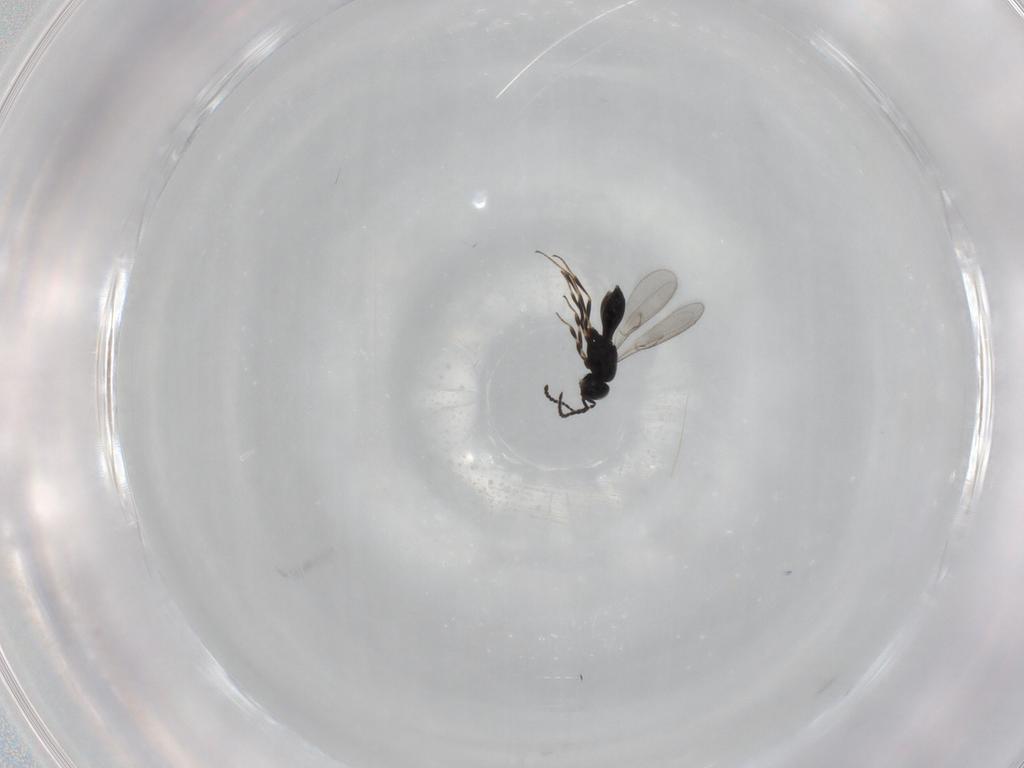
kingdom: Animalia
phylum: Arthropoda
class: Insecta
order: Hymenoptera
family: Scelionidae
